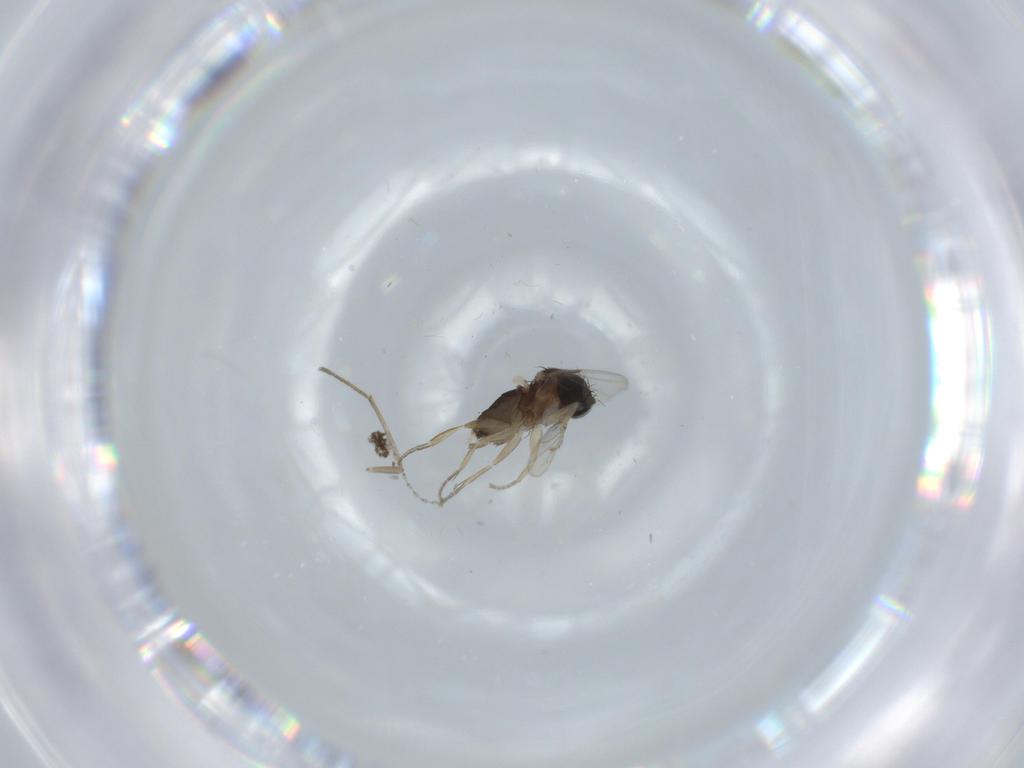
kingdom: Animalia
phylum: Arthropoda
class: Insecta
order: Diptera
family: Cecidomyiidae
